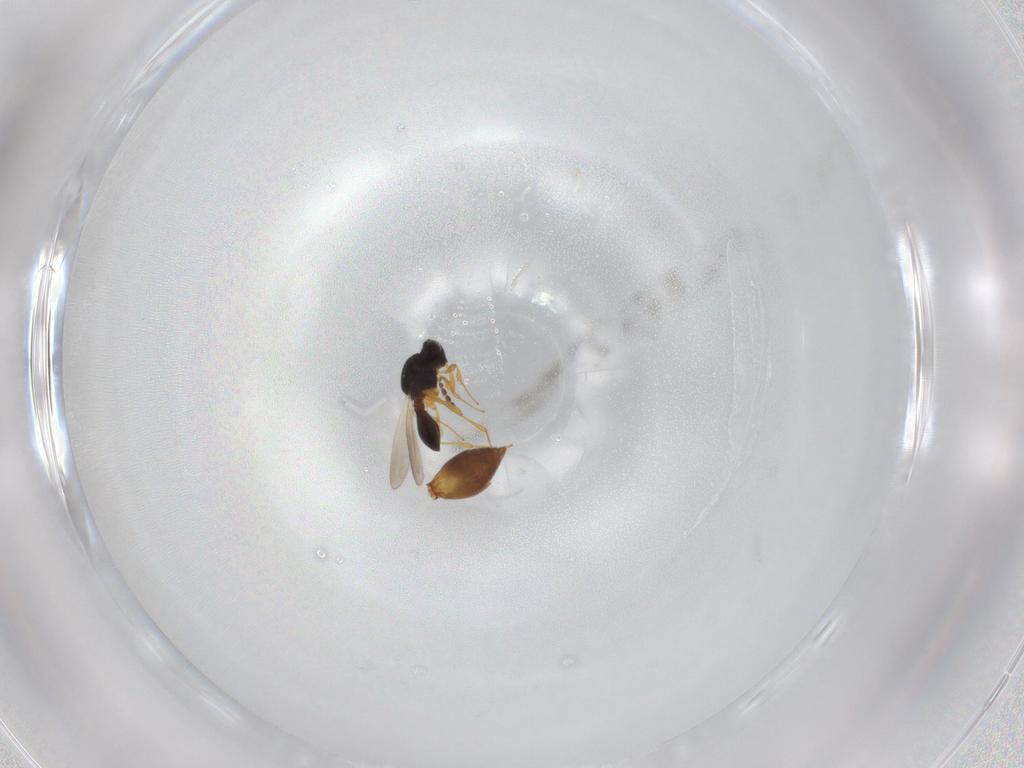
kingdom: Animalia
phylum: Arthropoda
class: Insecta
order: Hymenoptera
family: Megaspilidae
